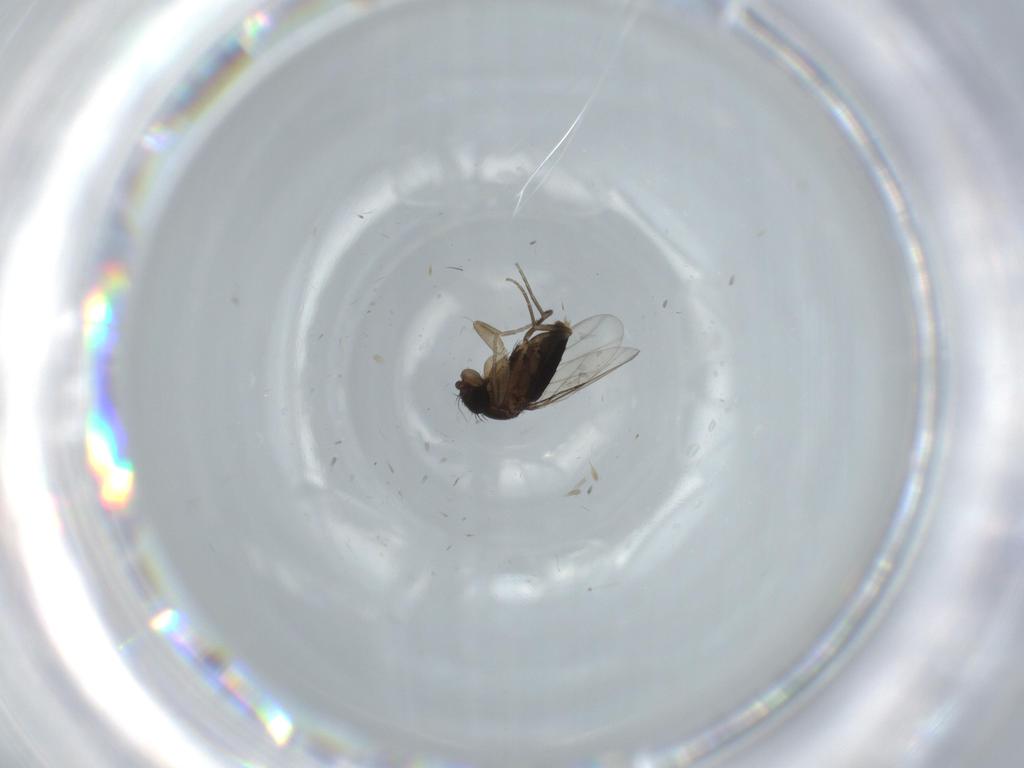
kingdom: Animalia
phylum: Arthropoda
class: Insecta
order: Diptera
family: Phoridae
